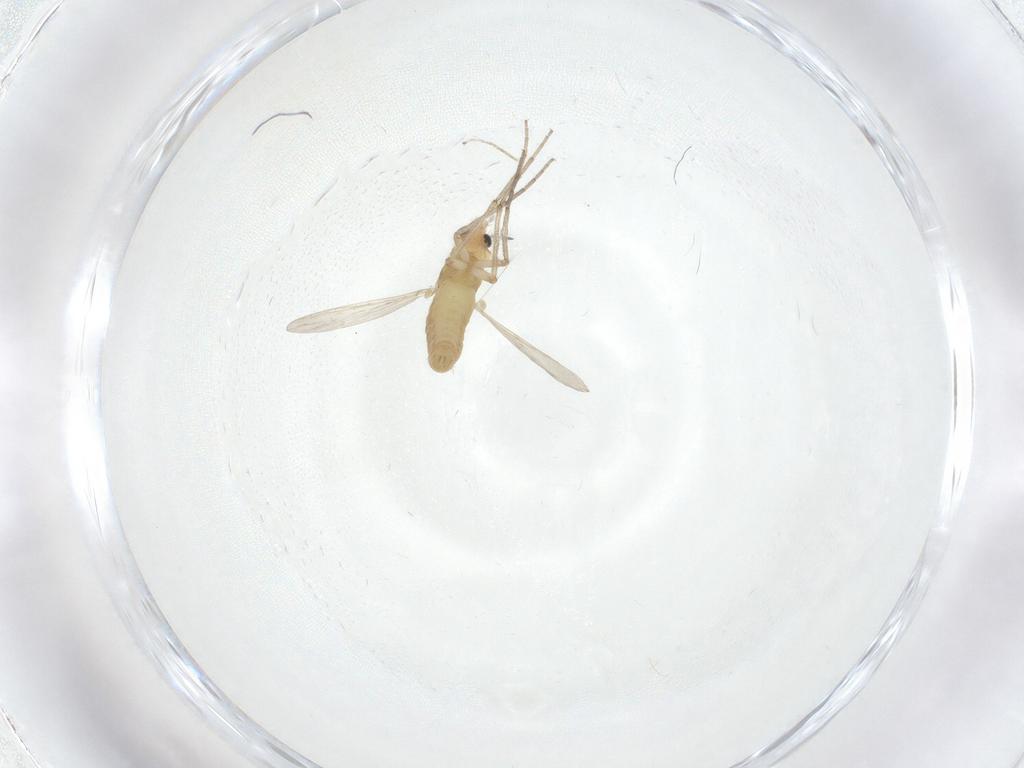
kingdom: Animalia
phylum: Arthropoda
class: Insecta
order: Diptera
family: Chironomidae
